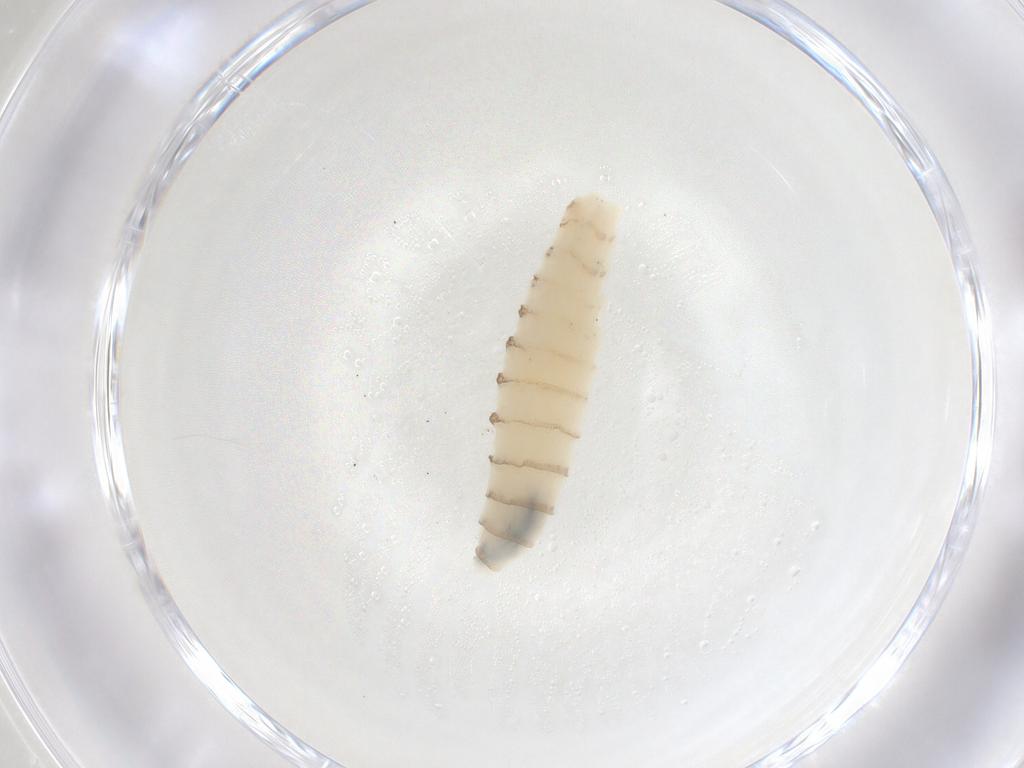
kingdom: Animalia
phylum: Arthropoda
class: Insecta
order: Diptera
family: Sarcophagidae
